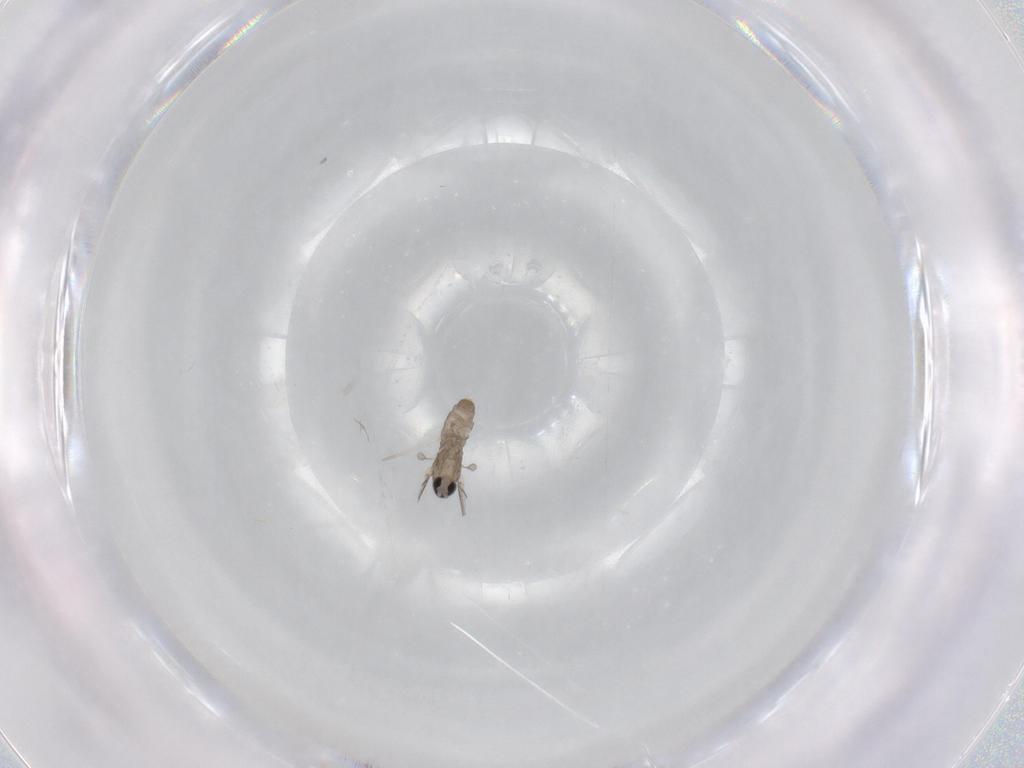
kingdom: Animalia
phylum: Arthropoda
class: Insecta
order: Diptera
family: Cecidomyiidae
